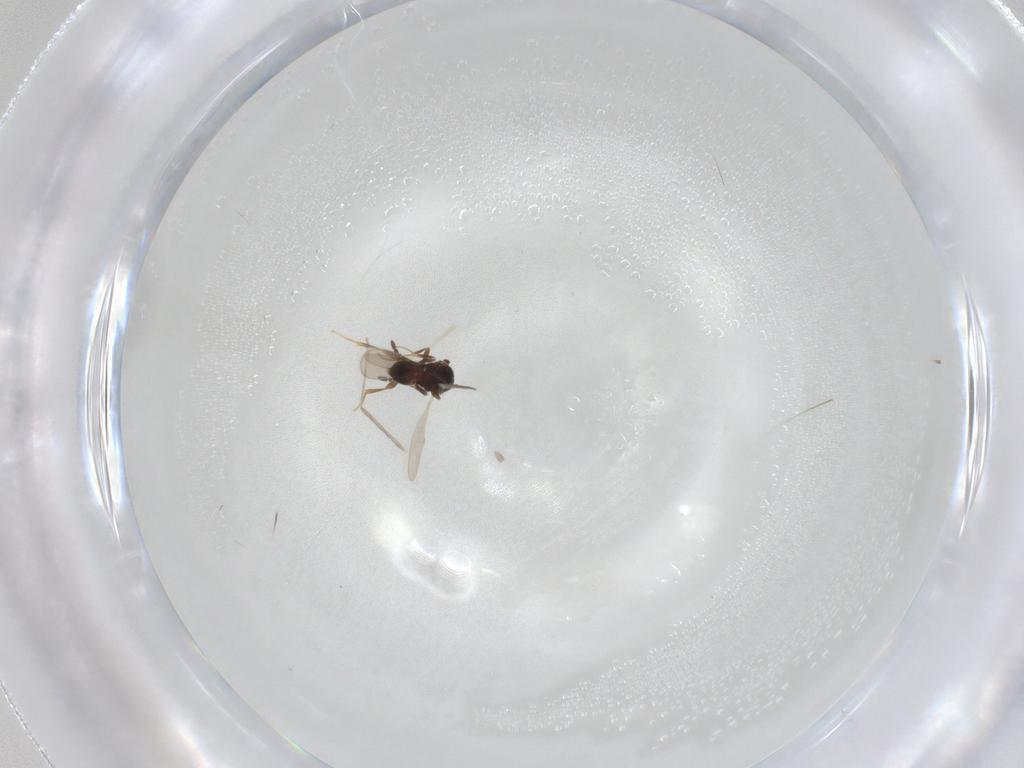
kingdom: Animalia
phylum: Arthropoda
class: Insecta
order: Hymenoptera
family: Ceraphronidae
